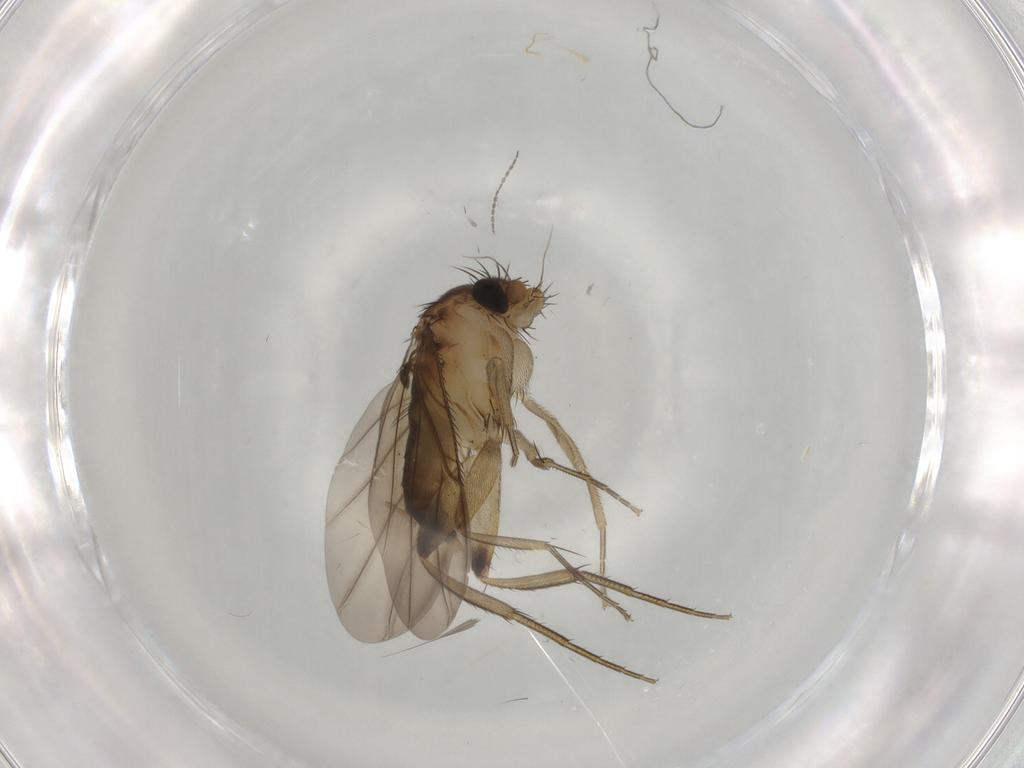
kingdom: Animalia
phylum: Arthropoda
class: Insecta
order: Diptera
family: Phoridae
